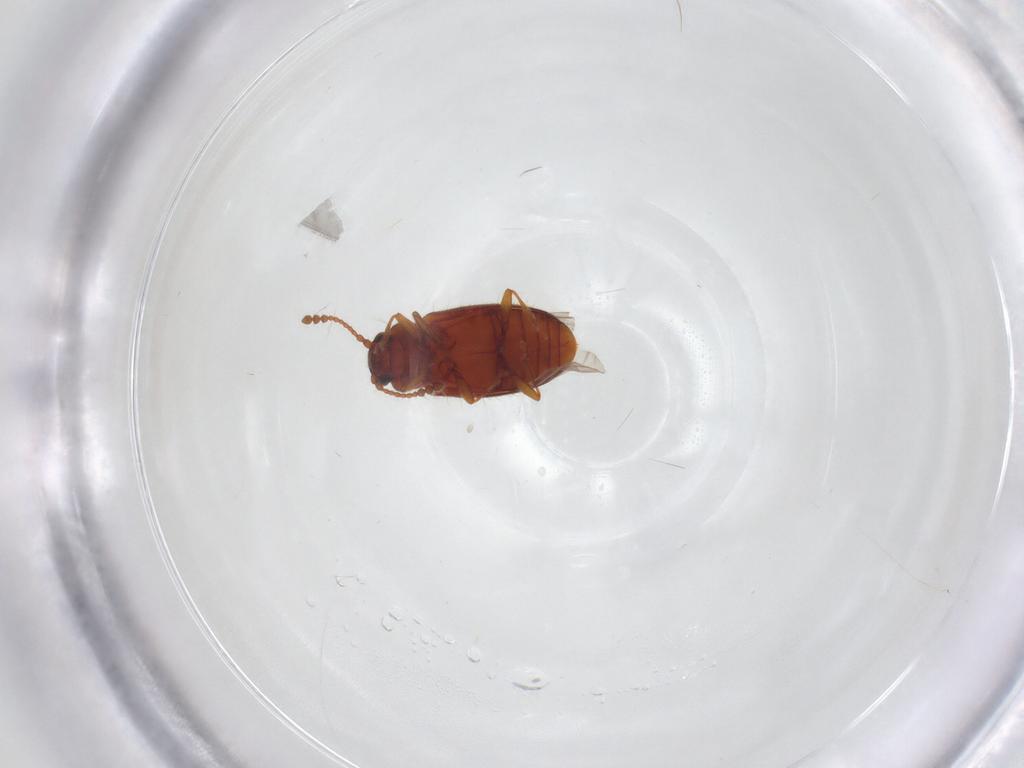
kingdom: Animalia
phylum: Arthropoda
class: Insecta
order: Coleoptera
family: Cryptophagidae
